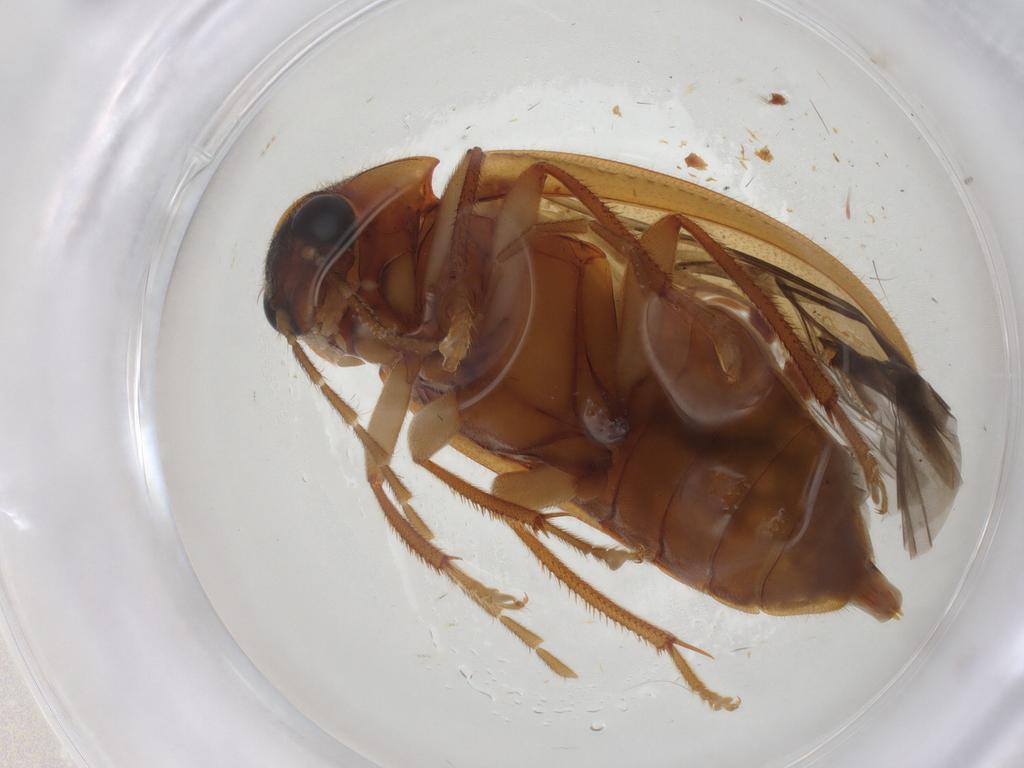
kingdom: Animalia
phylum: Arthropoda
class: Insecta
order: Coleoptera
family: Ptilodactylidae
